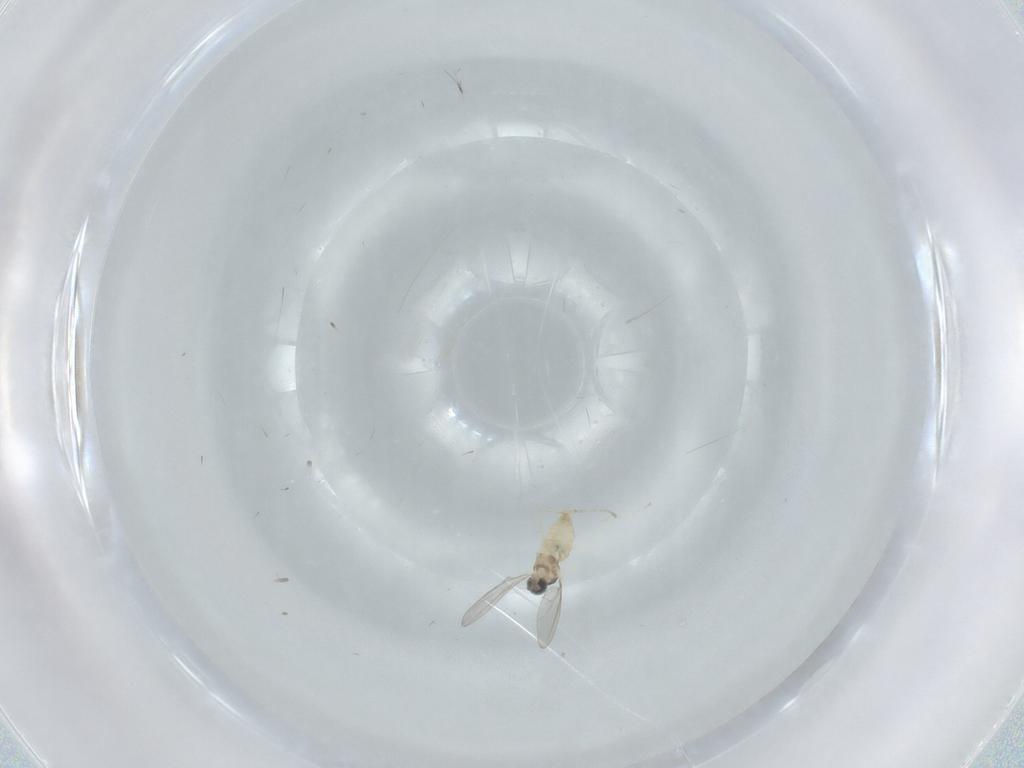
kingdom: Animalia
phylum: Arthropoda
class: Insecta
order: Diptera
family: Cecidomyiidae
